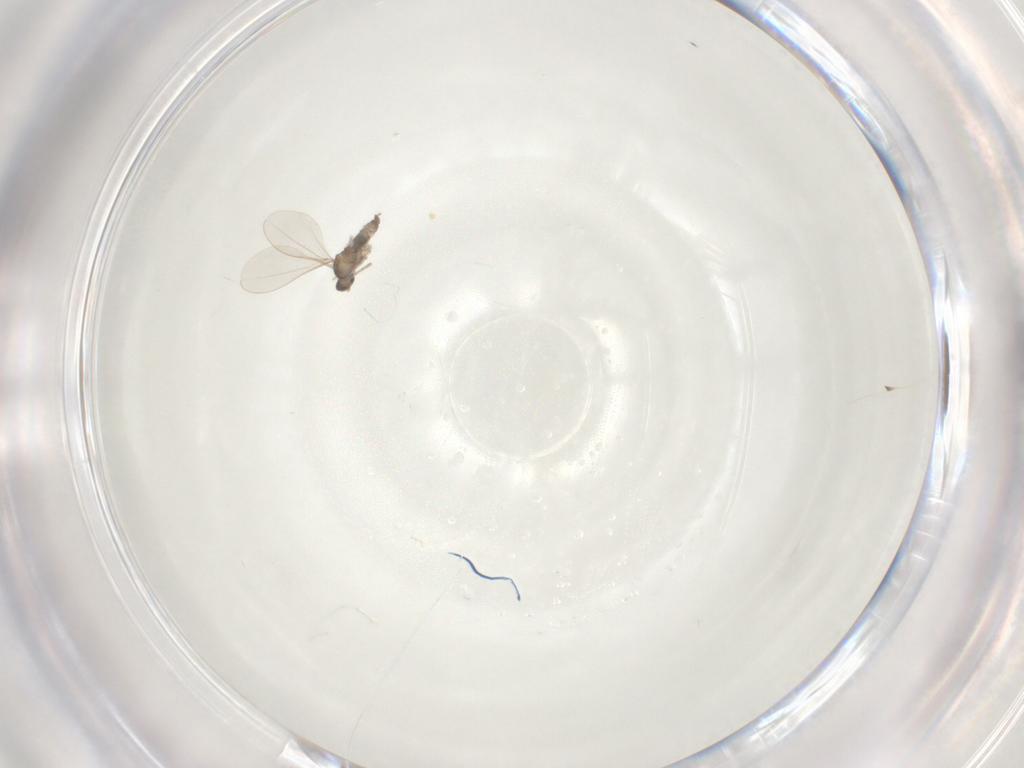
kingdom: Animalia
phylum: Arthropoda
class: Insecta
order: Diptera
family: Cecidomyiidae
